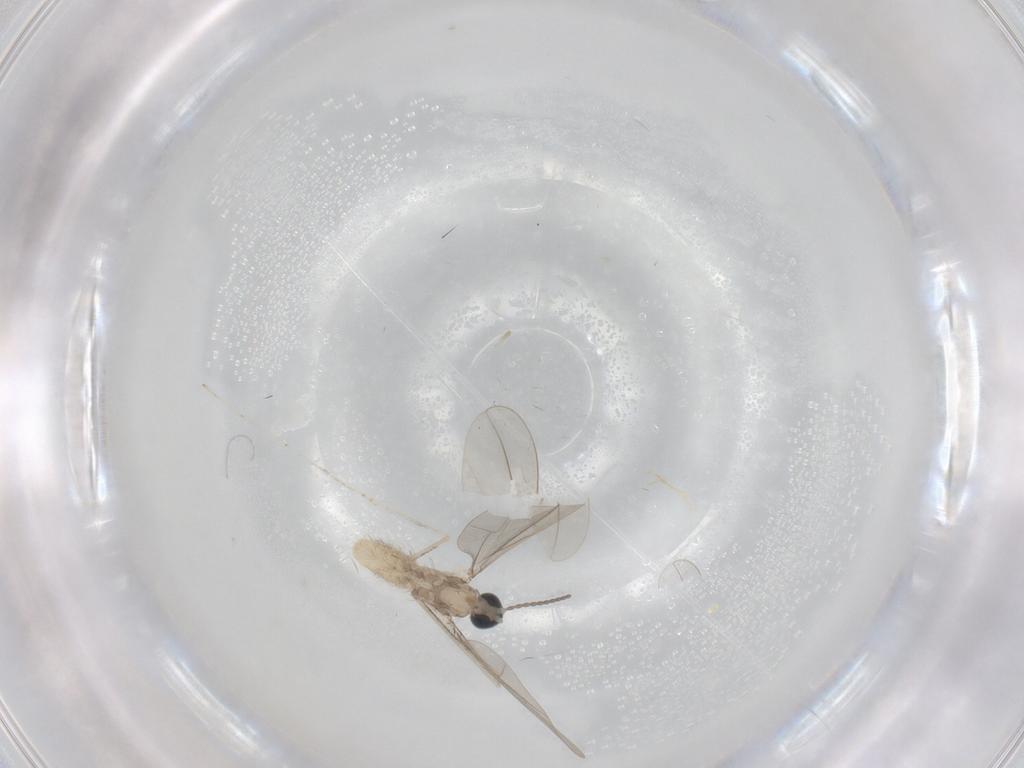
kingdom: Animalia
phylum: Arthropoda
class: Insecta
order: Diptera
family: Cecidomyiidae
